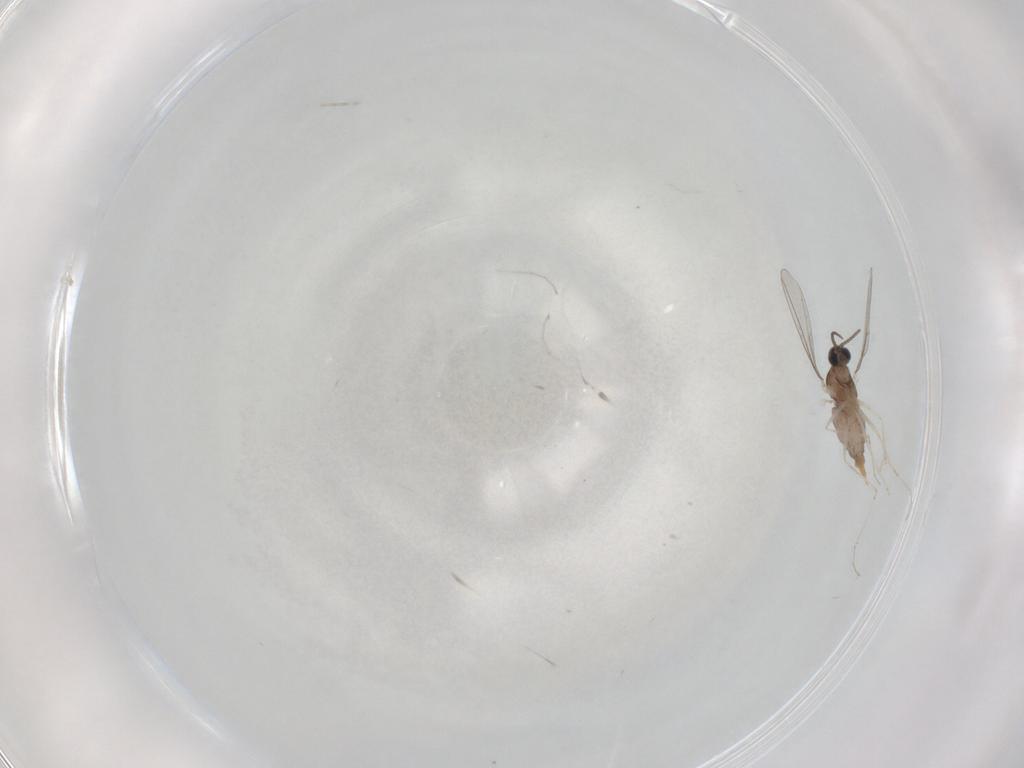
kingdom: Animalia
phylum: Arthropoda
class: Insecta
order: Diptera
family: Cecidomyiidae
